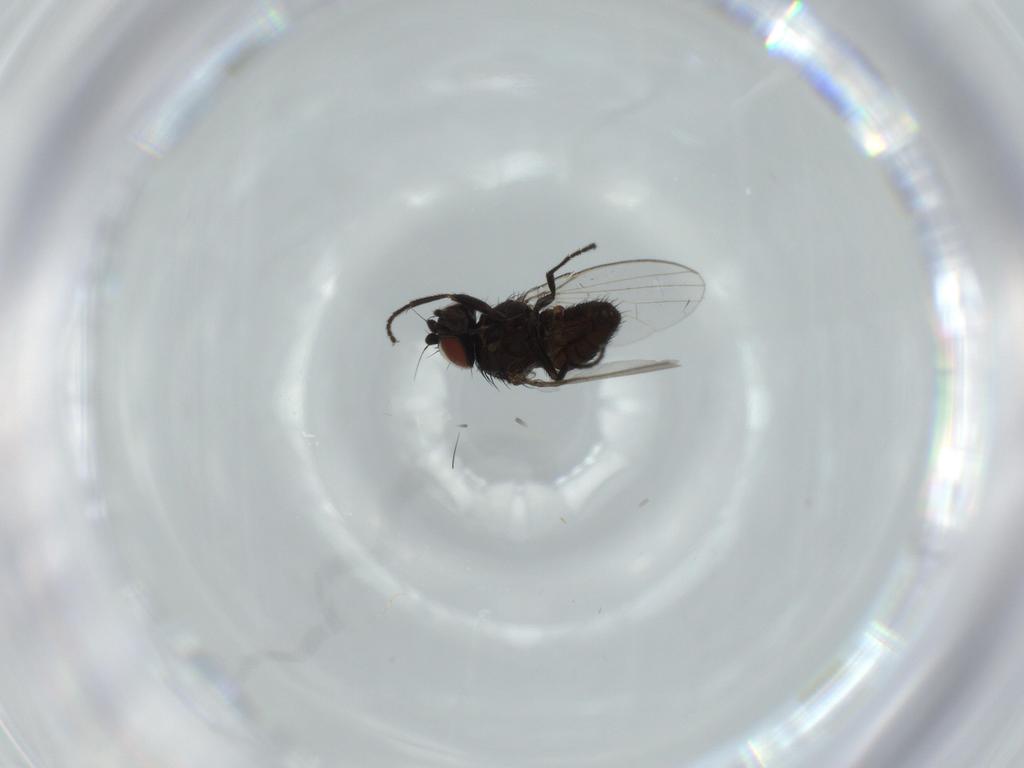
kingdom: Animalia
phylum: Arthropoda
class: Insecta
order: Diptera
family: Milichiidae
